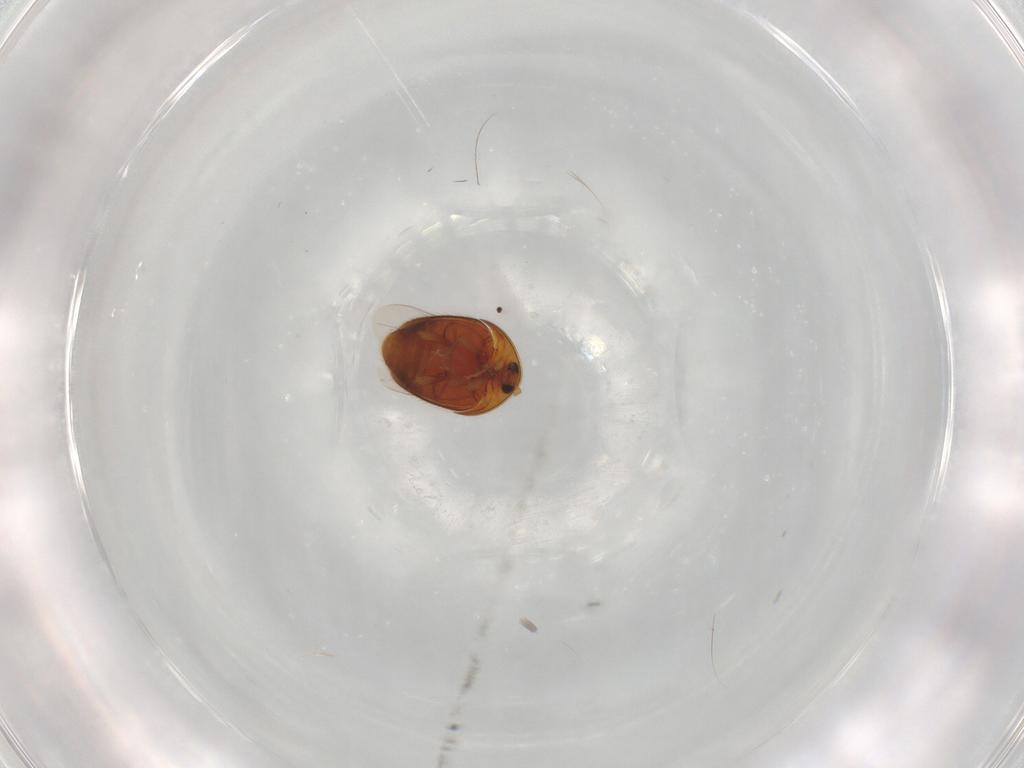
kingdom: Animalia
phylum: Arthropoda
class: Insecta
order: Coleoptera
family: Corylophidae
